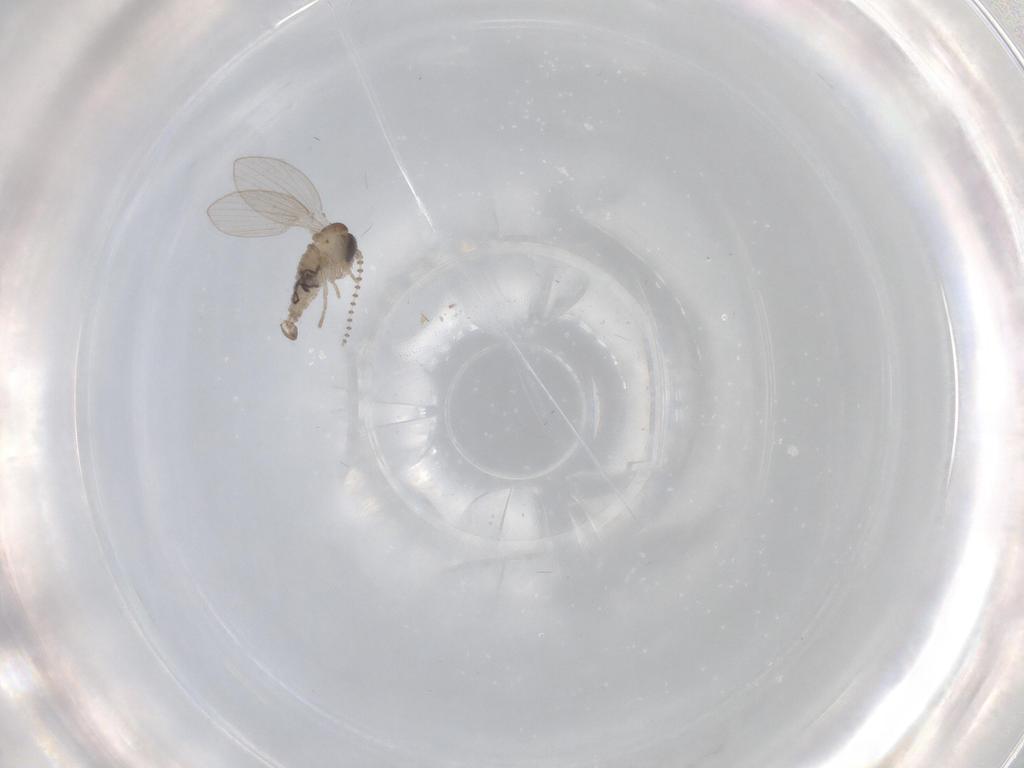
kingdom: Animalia
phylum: Arthropoda
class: Insecta
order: Diptera
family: Psychodidae
